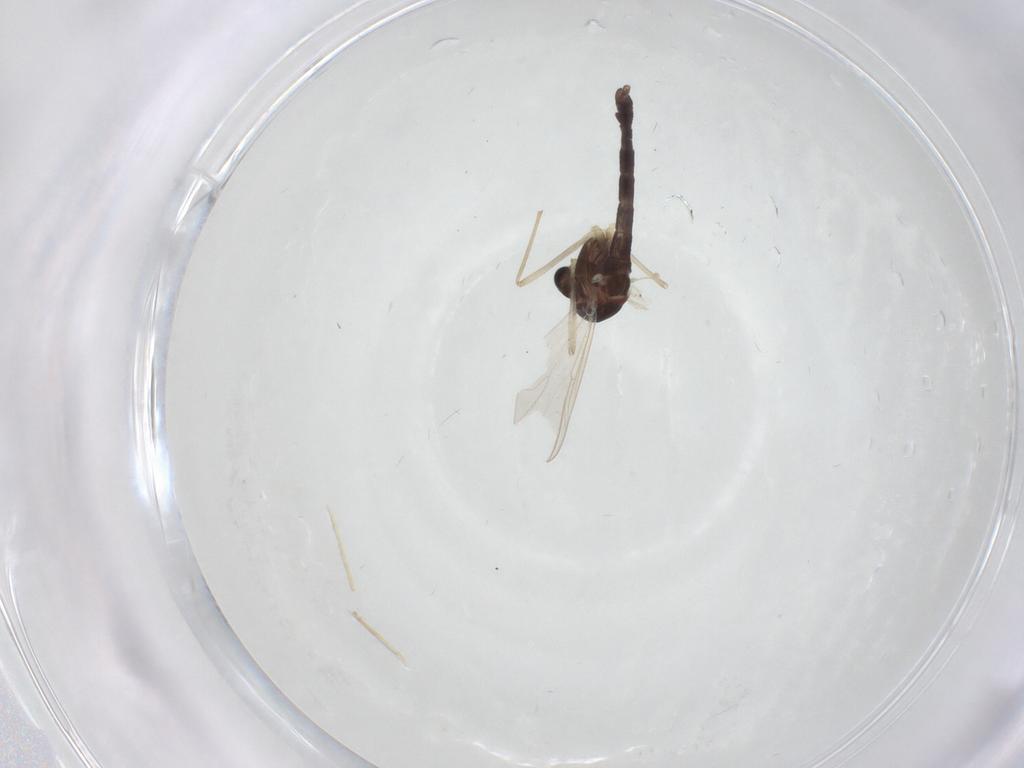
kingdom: Animalia
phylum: Arthropoda
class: Insecta
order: Diptera
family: Chironomidae
